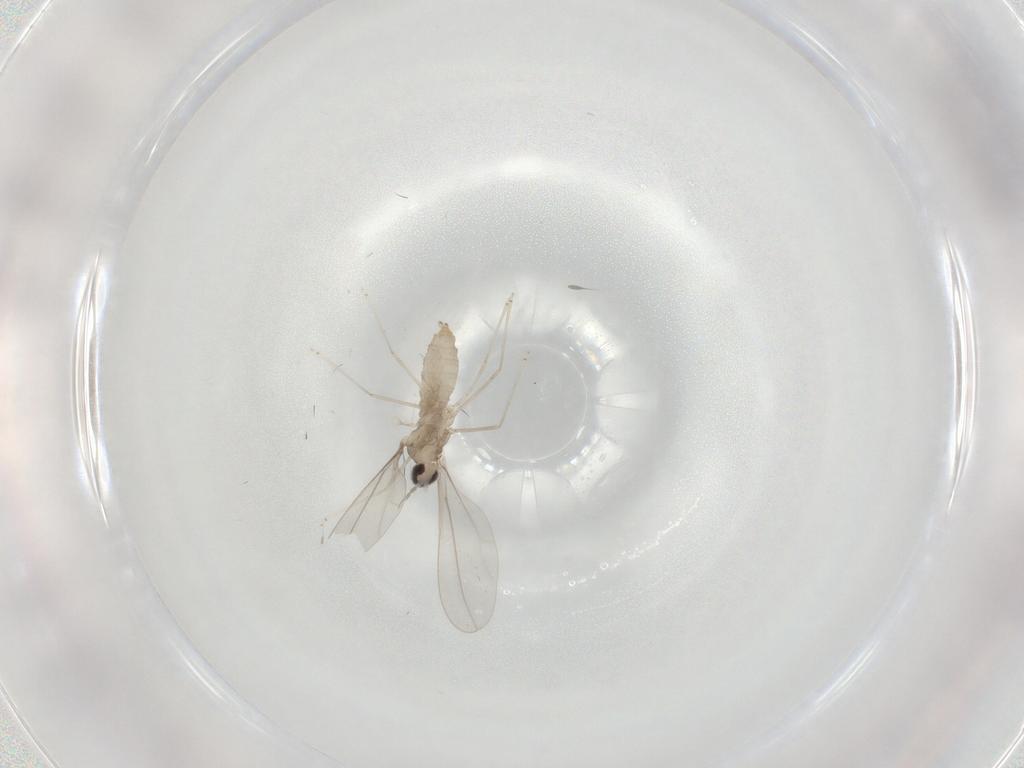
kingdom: Animalia
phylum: Arthropoda
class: Insecta
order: Diptera
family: Cecidomyiidae
